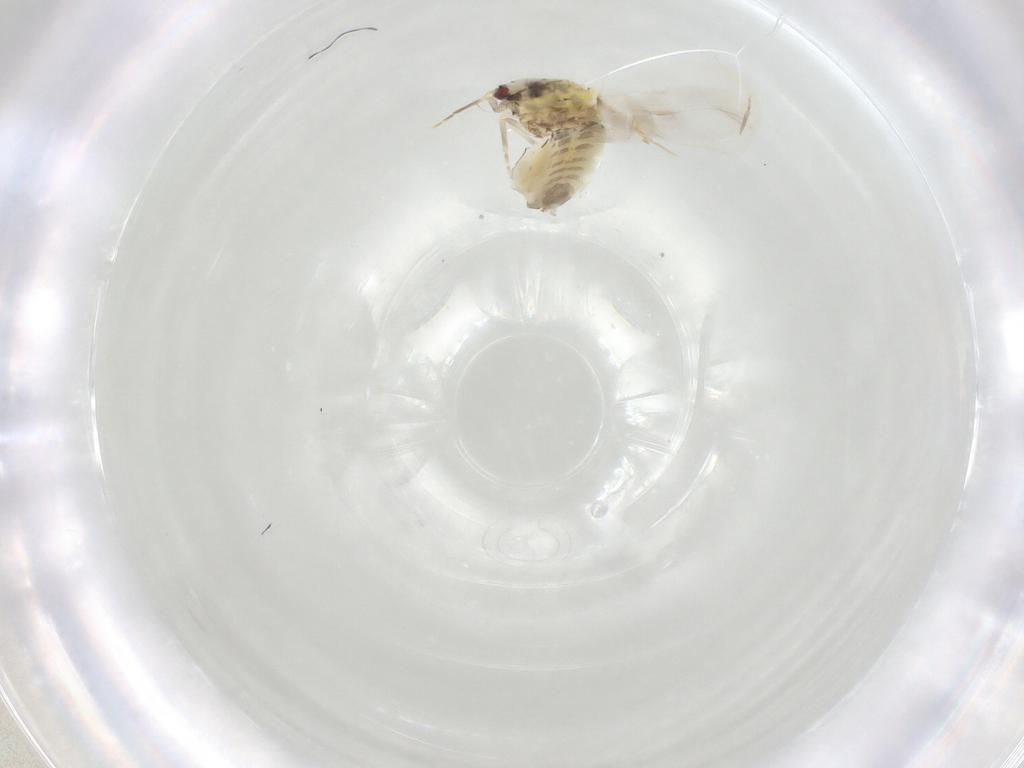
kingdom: Animalia
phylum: Arthropoda
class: Insecta
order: Hemiptera
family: Aleyrodidae
